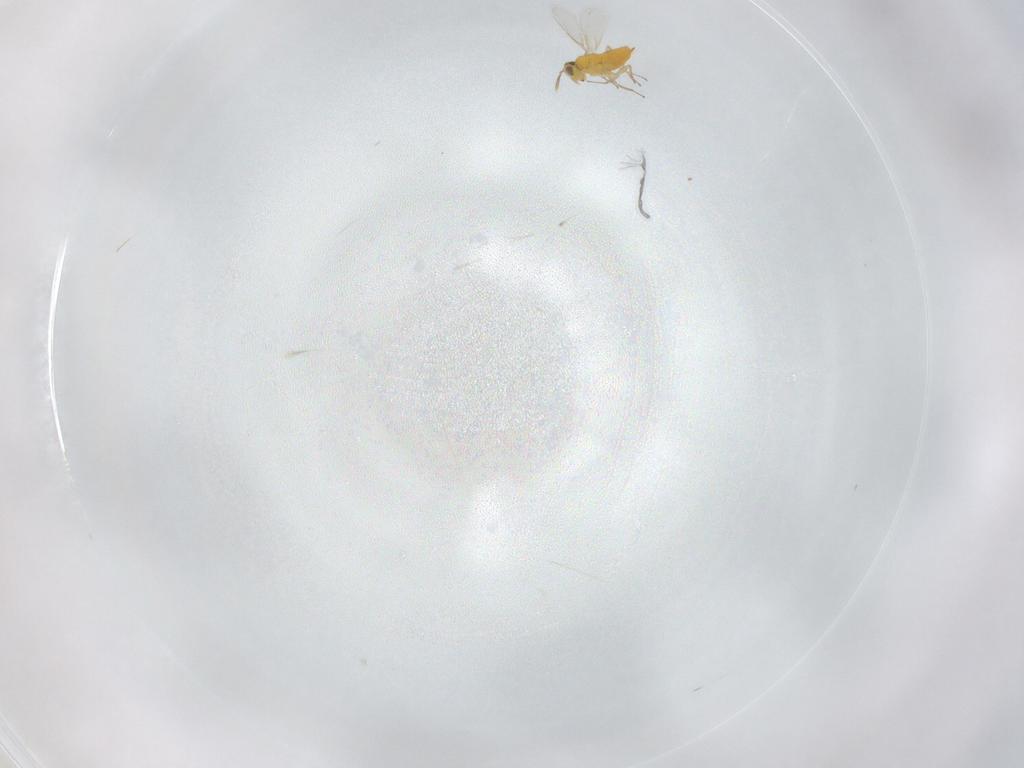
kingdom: Animalia
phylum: Arthropoda
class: Insecta
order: Hymenoptera
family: Aphelinidae
